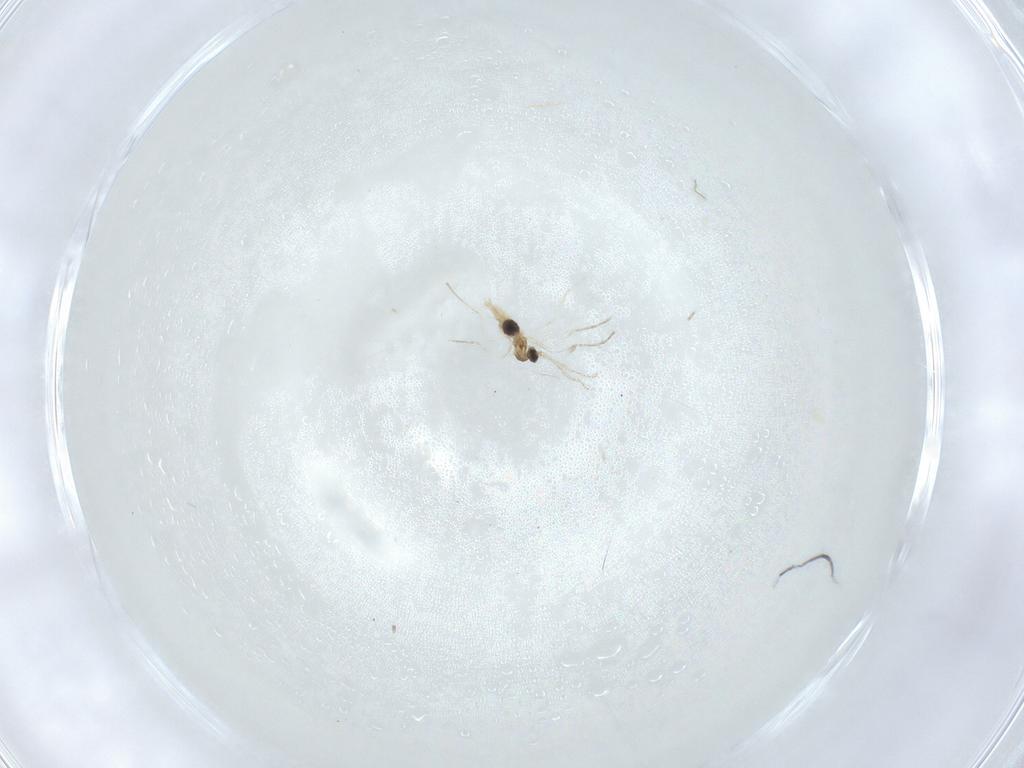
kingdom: Animalia
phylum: Arthropoda
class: Insecta
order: Diptera
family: Cecidomyiidae
